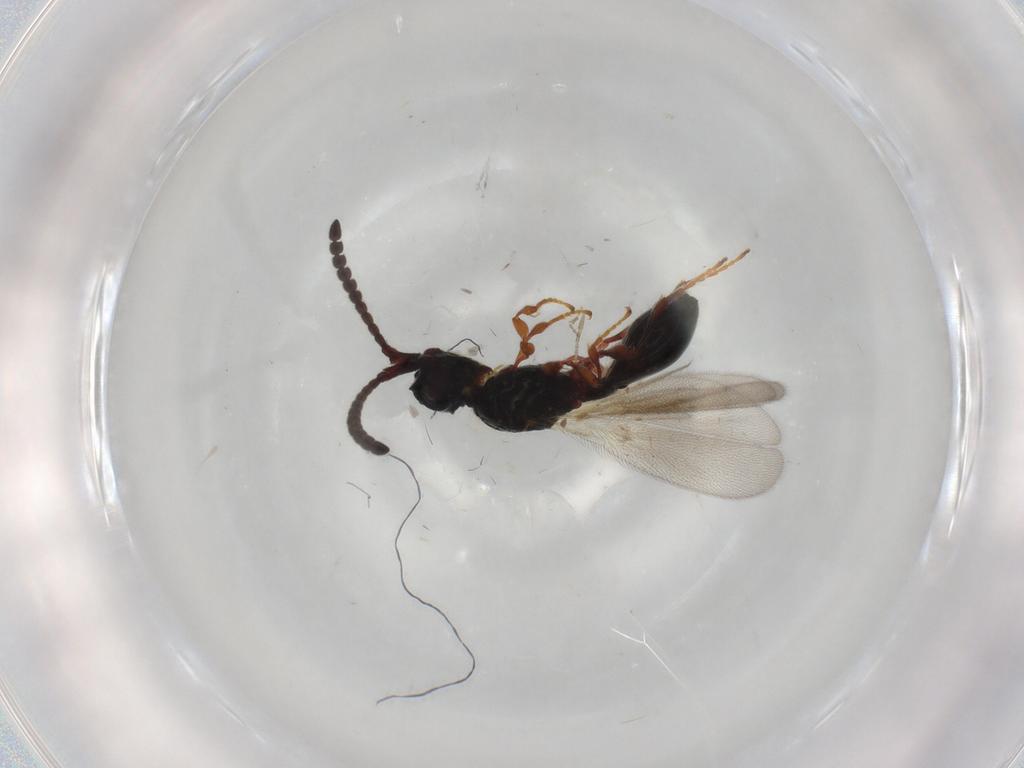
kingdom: Animalia
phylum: Arthropoda
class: Insecta
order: Hymenoptera
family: Diapriidae
